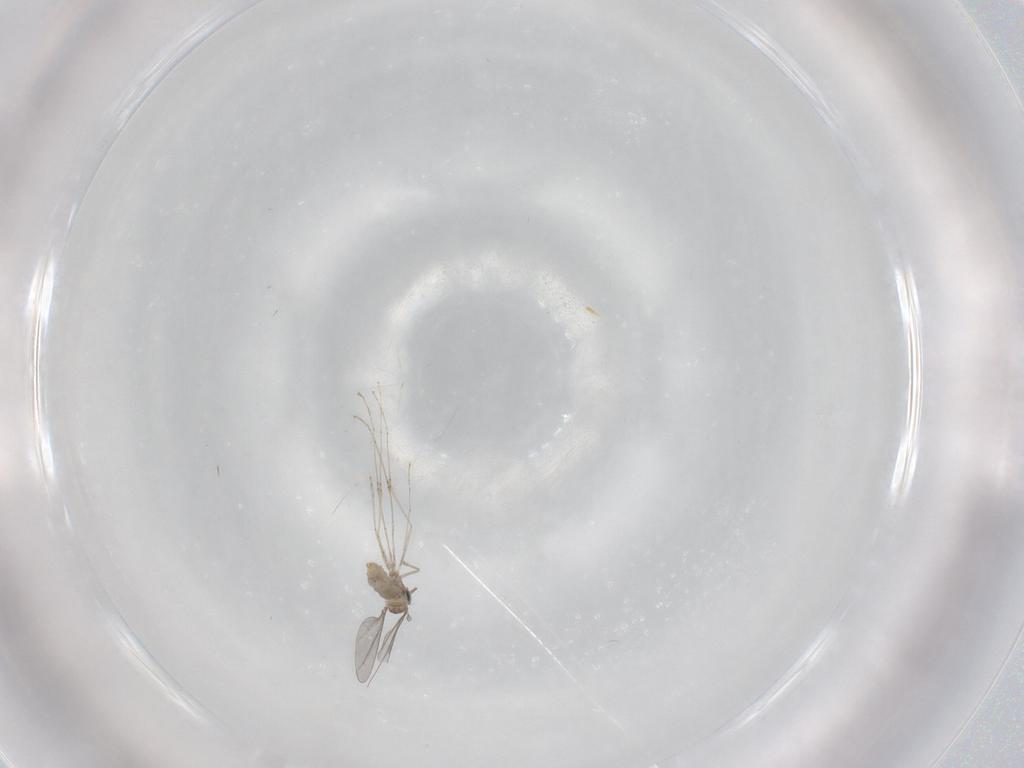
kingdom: Animalia
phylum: Arthropoda
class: Insecta
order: Diptera
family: Cecidomyiidae
